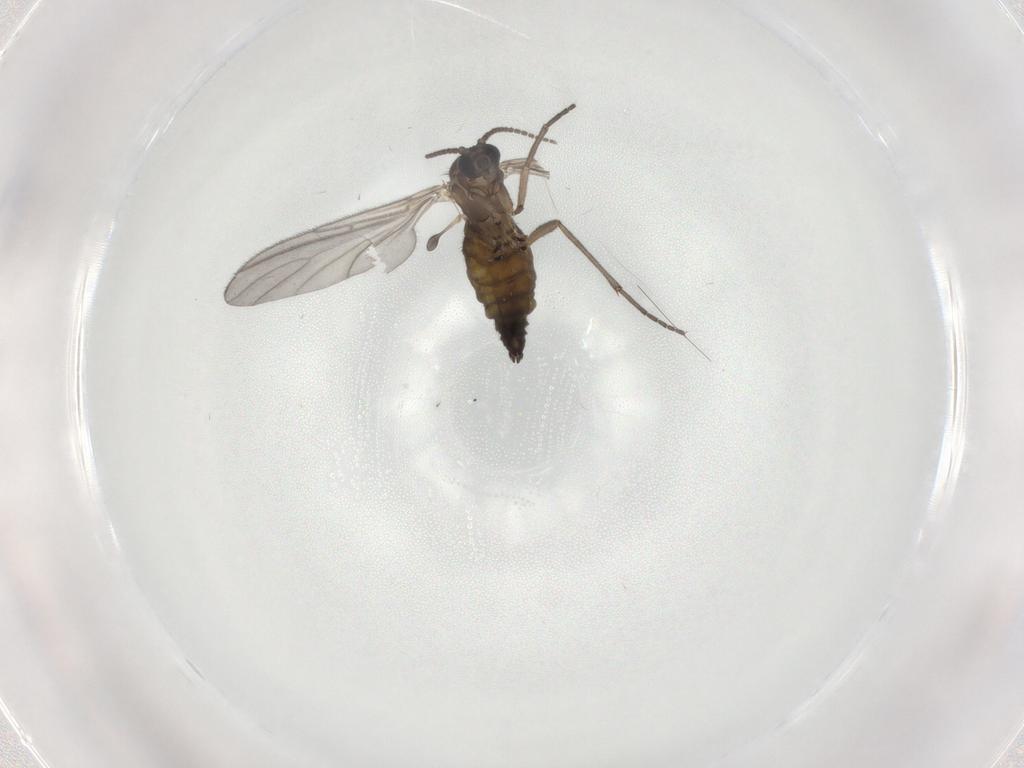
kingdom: Animalia
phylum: Arthropoda
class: Insecta
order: Diptera
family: Sciaridae
